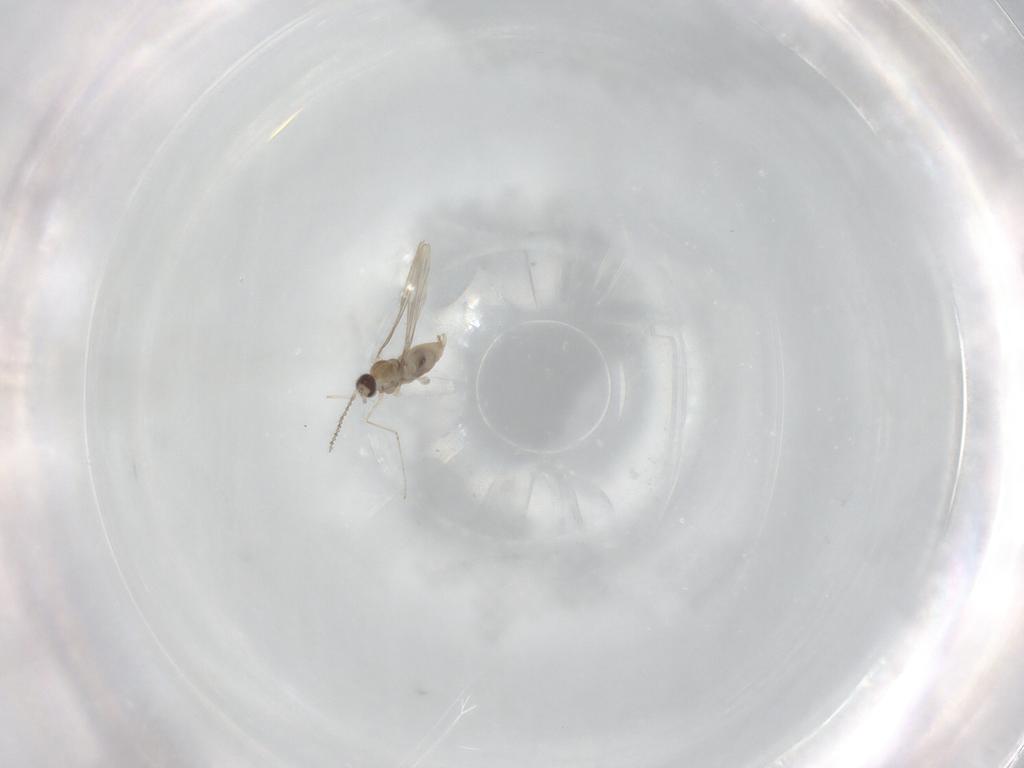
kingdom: Animalia
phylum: Arthropoda
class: Insecta
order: Diptera
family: Cecidomyiidae
